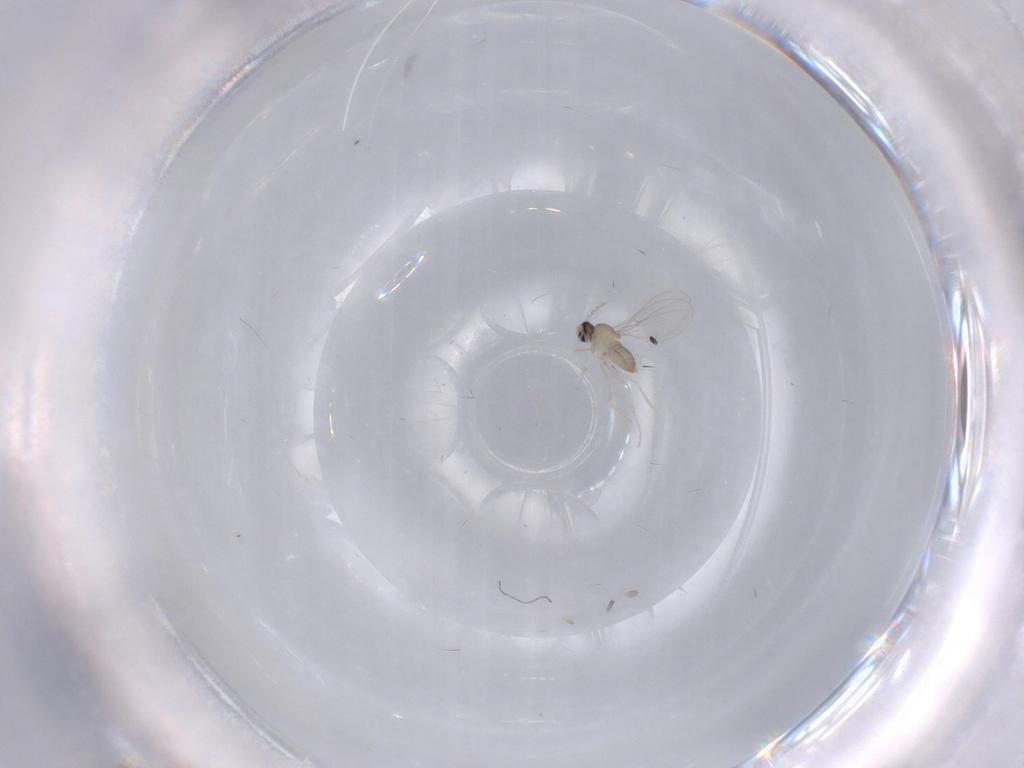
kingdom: Animalia
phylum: Arthropoda
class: Insecta
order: Diptera
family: Cecidomyiidae
